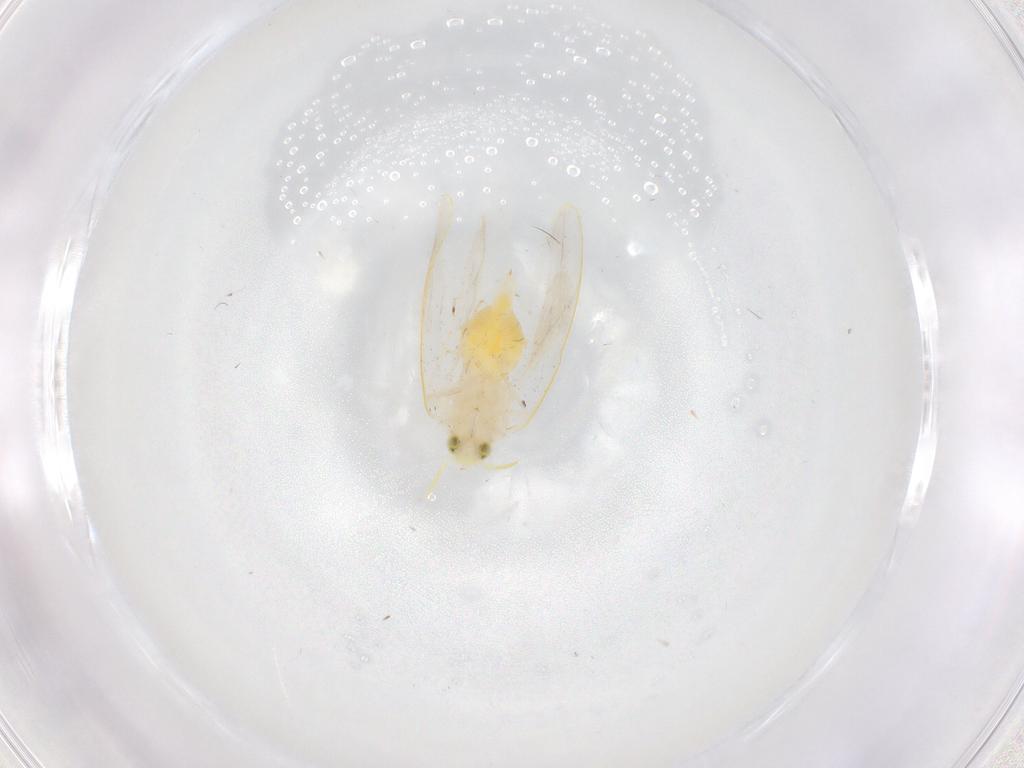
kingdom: Animalia
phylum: Arthropoda
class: Insecta
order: Hemiptera
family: Aleyrodidae
